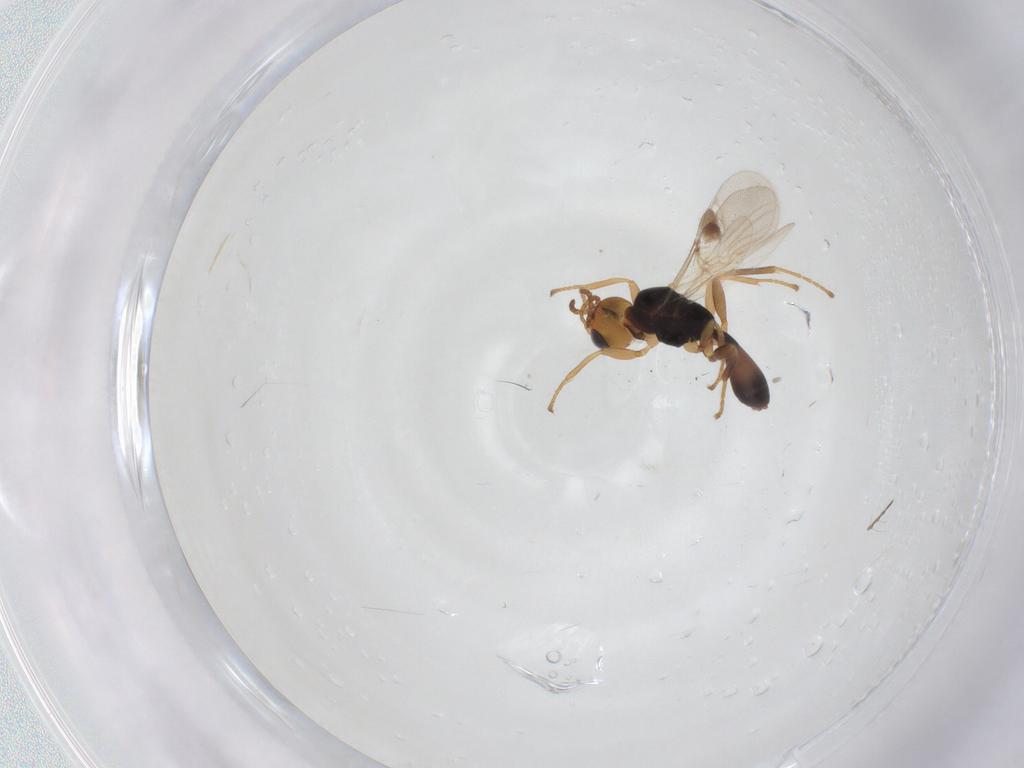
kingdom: Animalia
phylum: Arthropoda
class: Insecta
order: Hymenoptera
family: Braconidae
